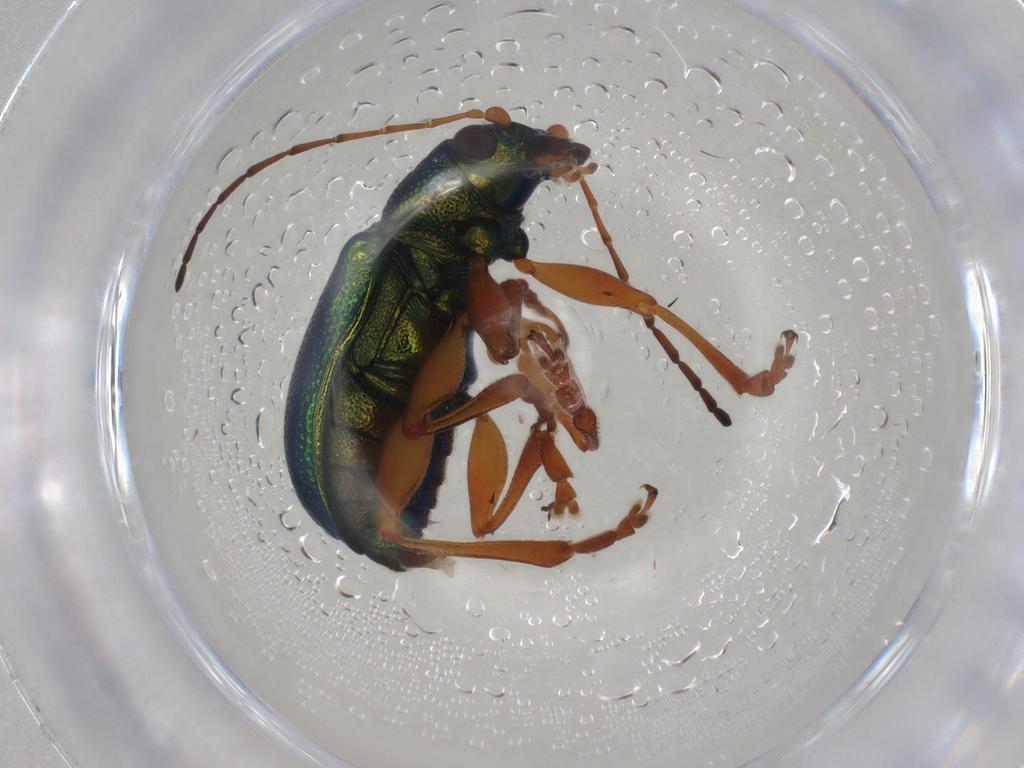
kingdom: Animalia
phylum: Arthropoda
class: Insecta
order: Coleoptera
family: Chrysomelidae
